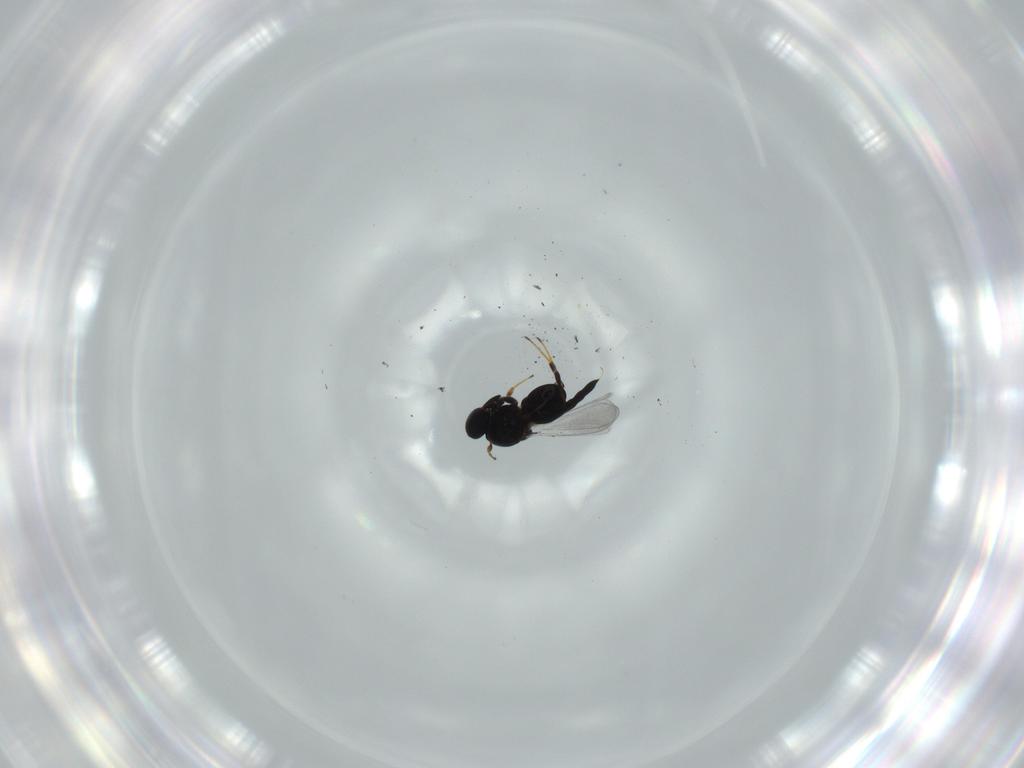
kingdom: Animalia
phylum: Arthropoda
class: Insecta
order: Hymenoptera
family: Platygastridae
